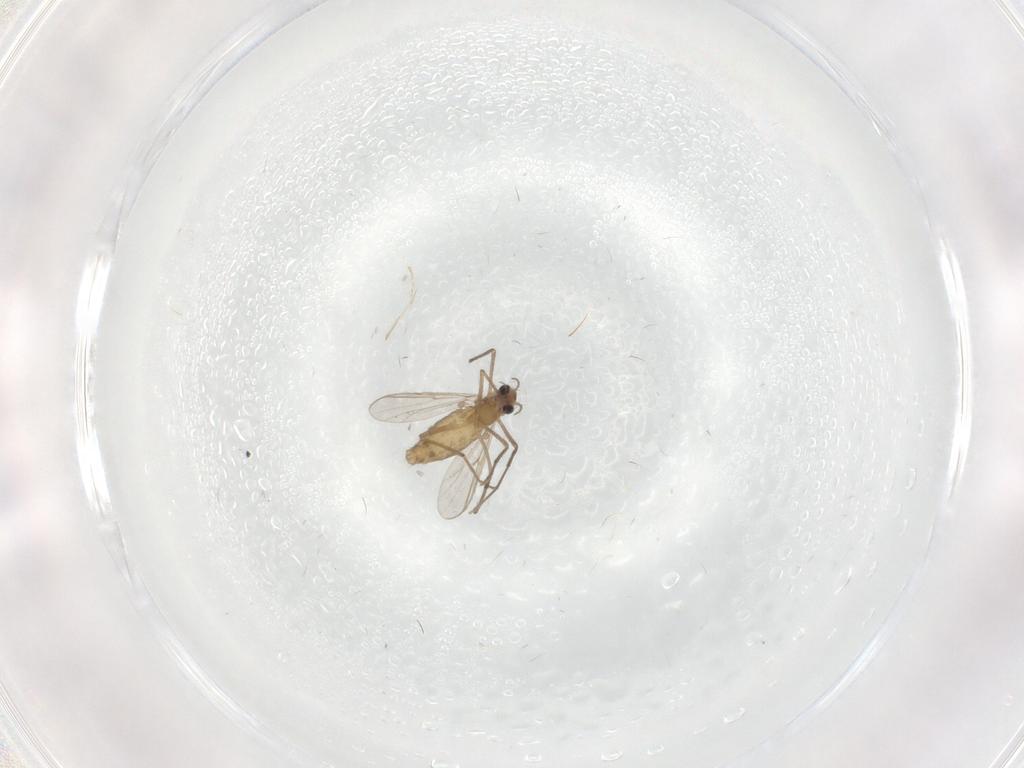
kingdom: Animalia
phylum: Arthropoda
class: Insecta
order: Diptera
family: Chironomidae
